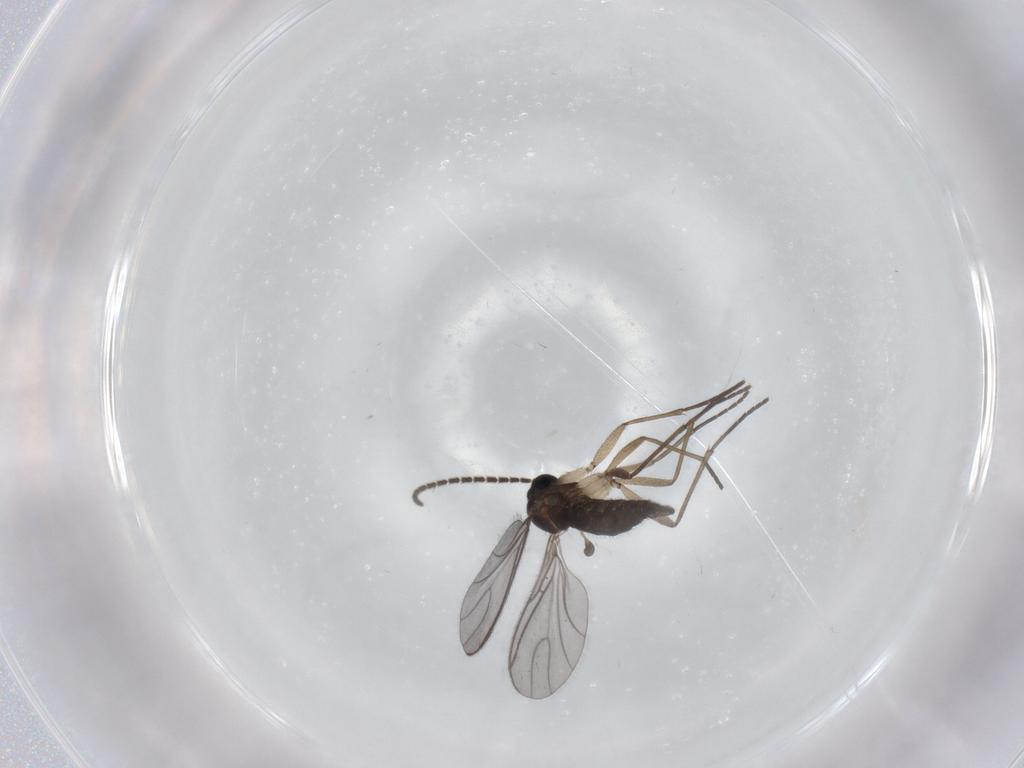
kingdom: Animalia
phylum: Arthropoda
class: Insecta
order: Diptera
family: Sciaridae
